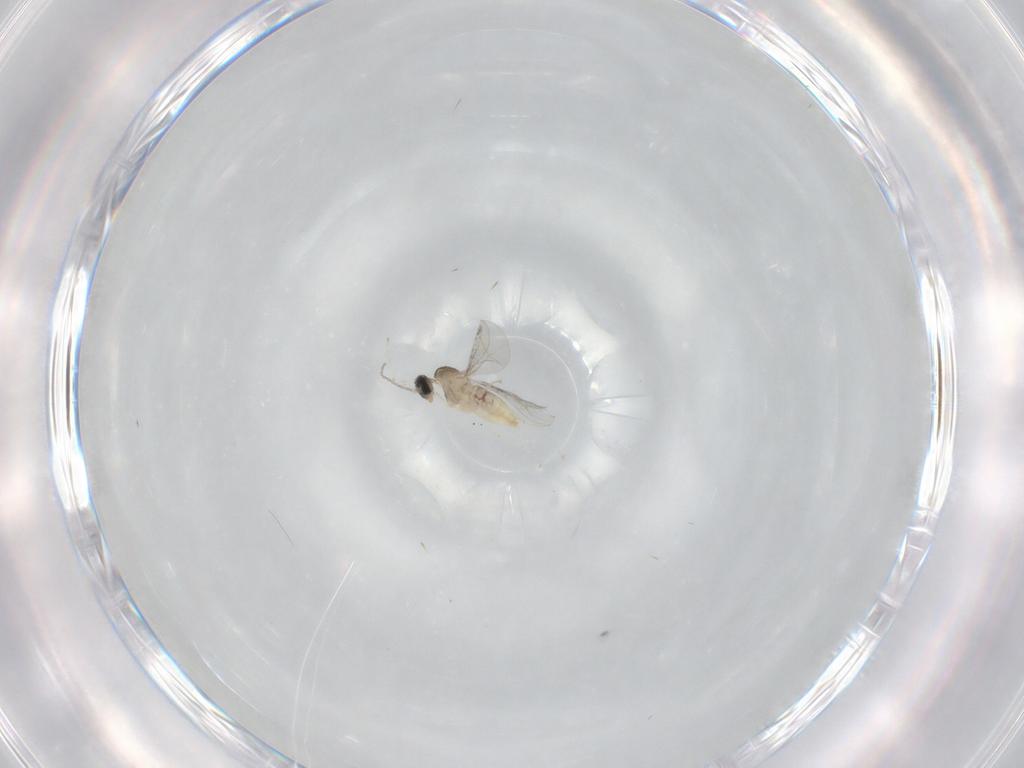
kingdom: Animalia
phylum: Arthropoda
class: Insecta
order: Diptera
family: Cecidomyiidae
